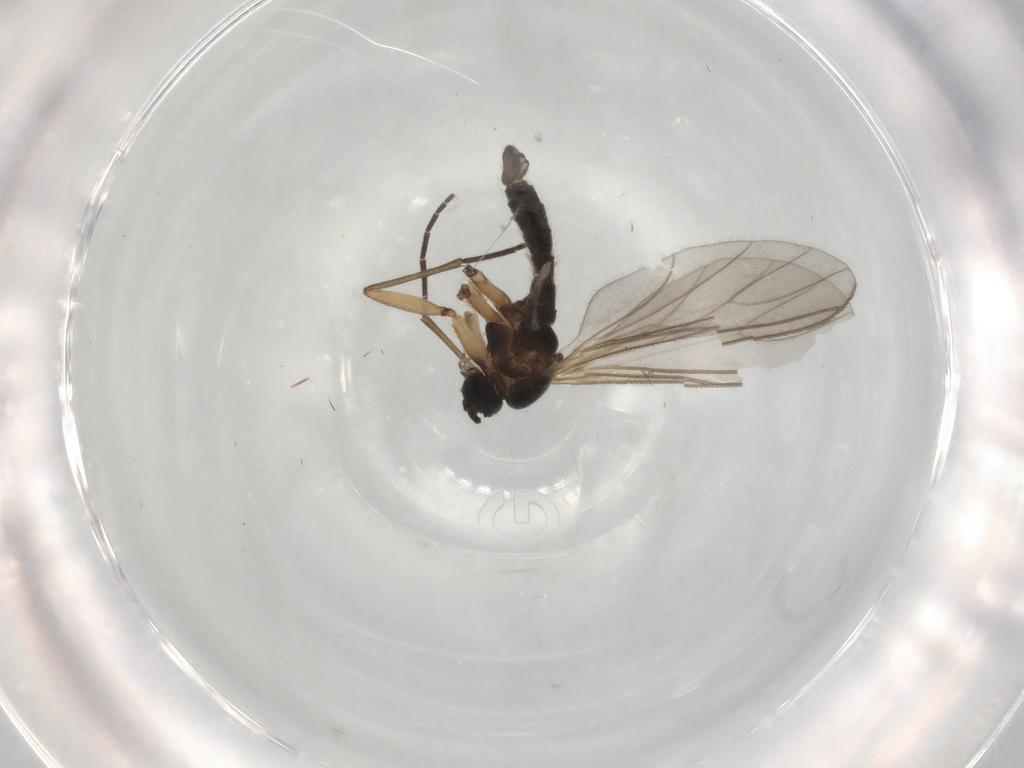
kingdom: Animalia
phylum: Arthropoda
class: Insecta
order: Diptera
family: Sciaridae
